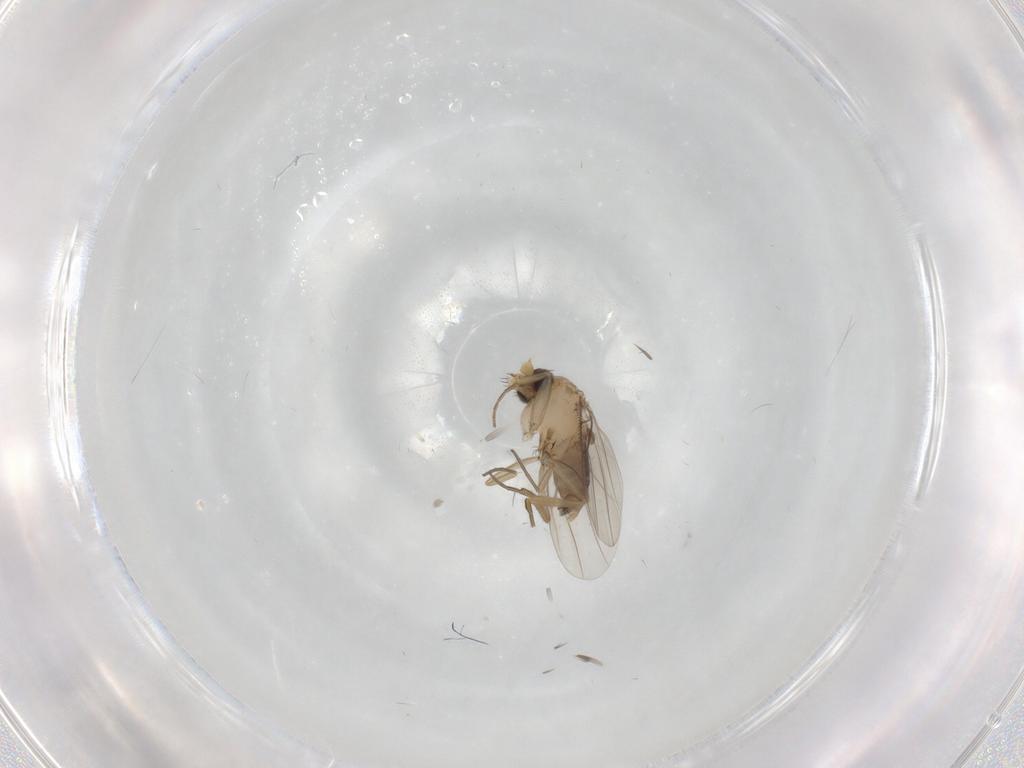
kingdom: Animalia
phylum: Arthropoda
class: Insecta
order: Diptera
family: Phoridae
